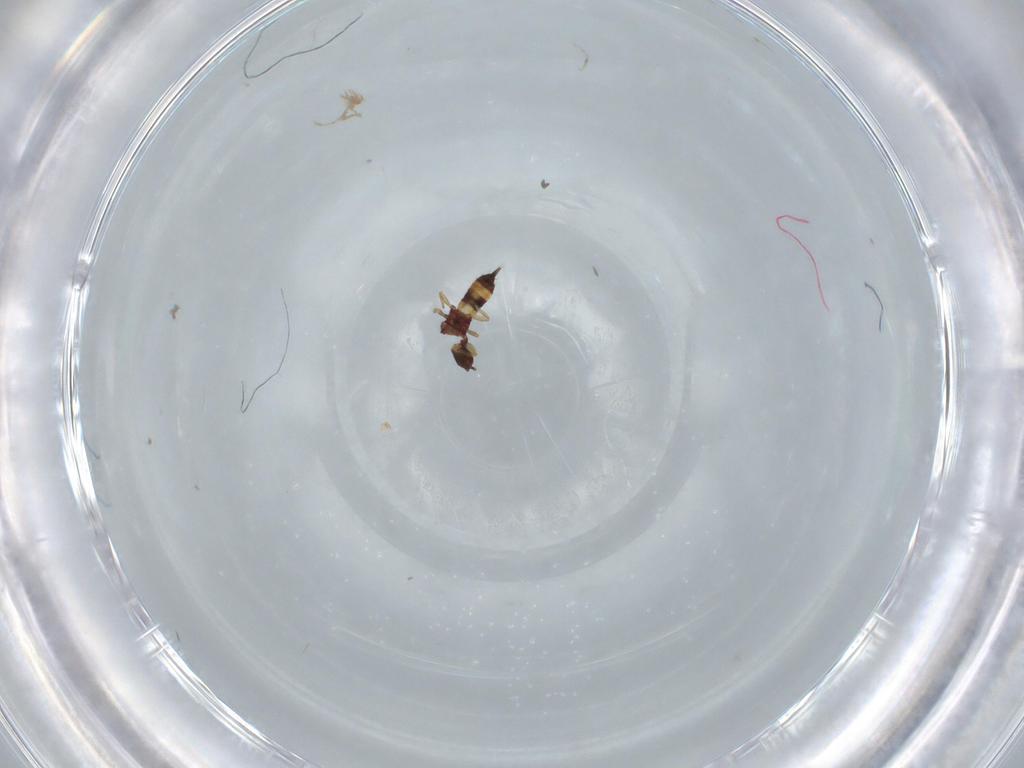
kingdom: Animalia
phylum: Arthropoda
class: Insecta
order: Thysanoptera
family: Phlaeothripidae
